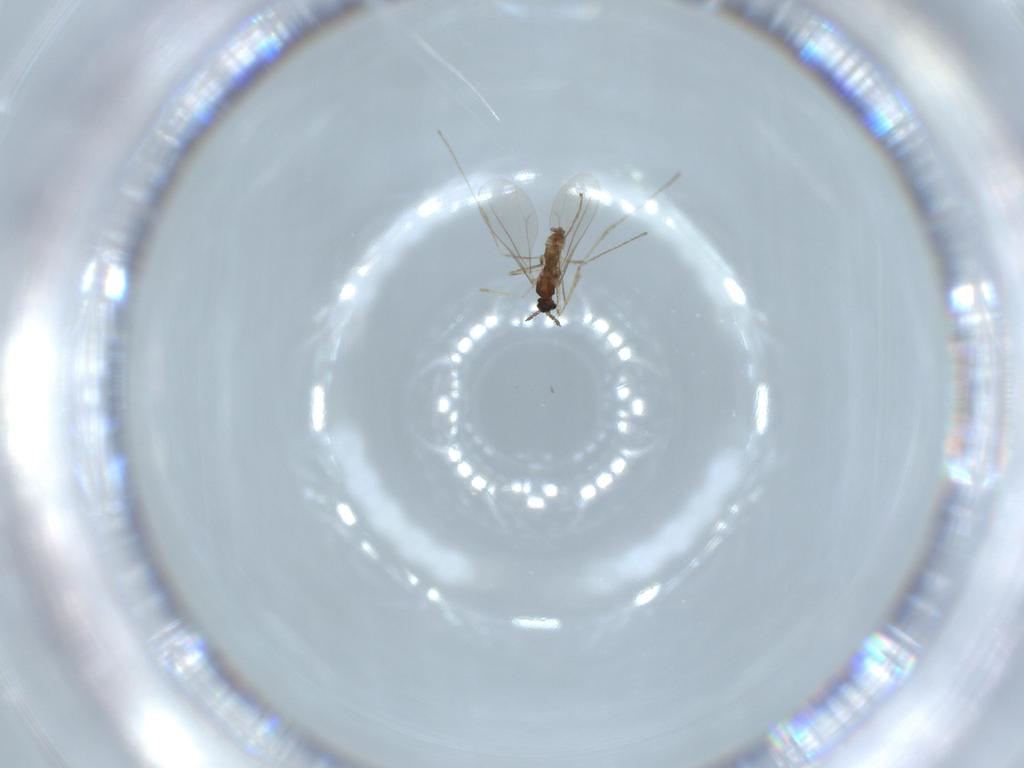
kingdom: Animalia
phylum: Arthropoda
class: Insecta
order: Diptera
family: Cecidomyiidae
